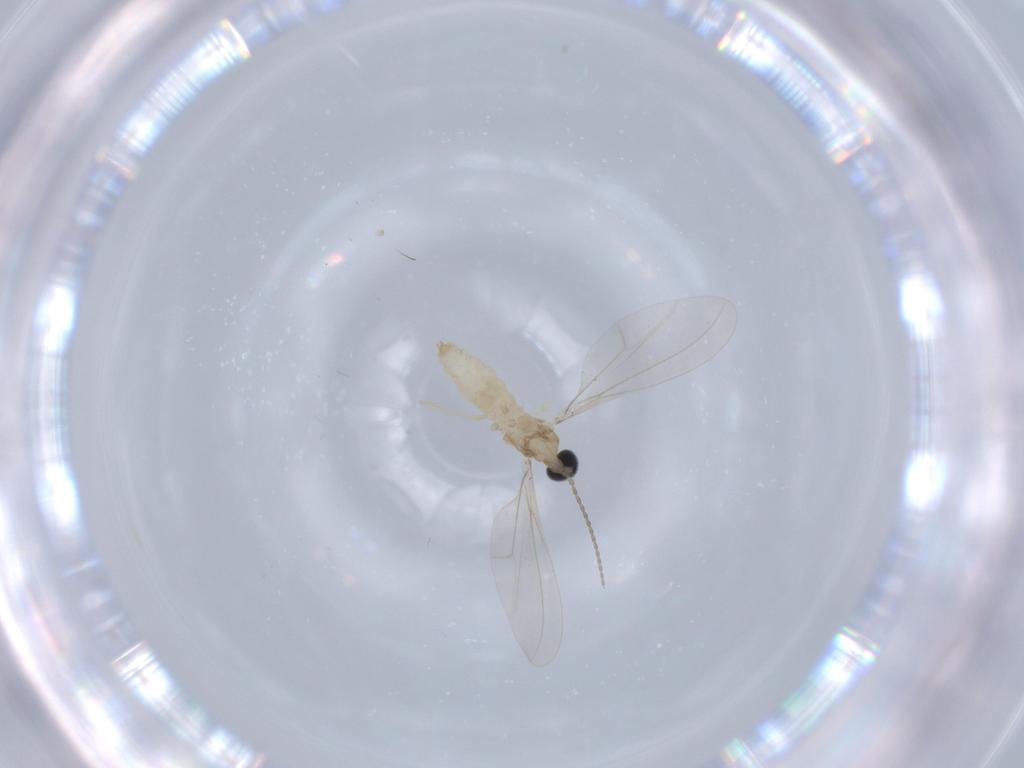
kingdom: Animalia
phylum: Arthropoda
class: Insecta
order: Diptera
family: Cecidomyiidae
